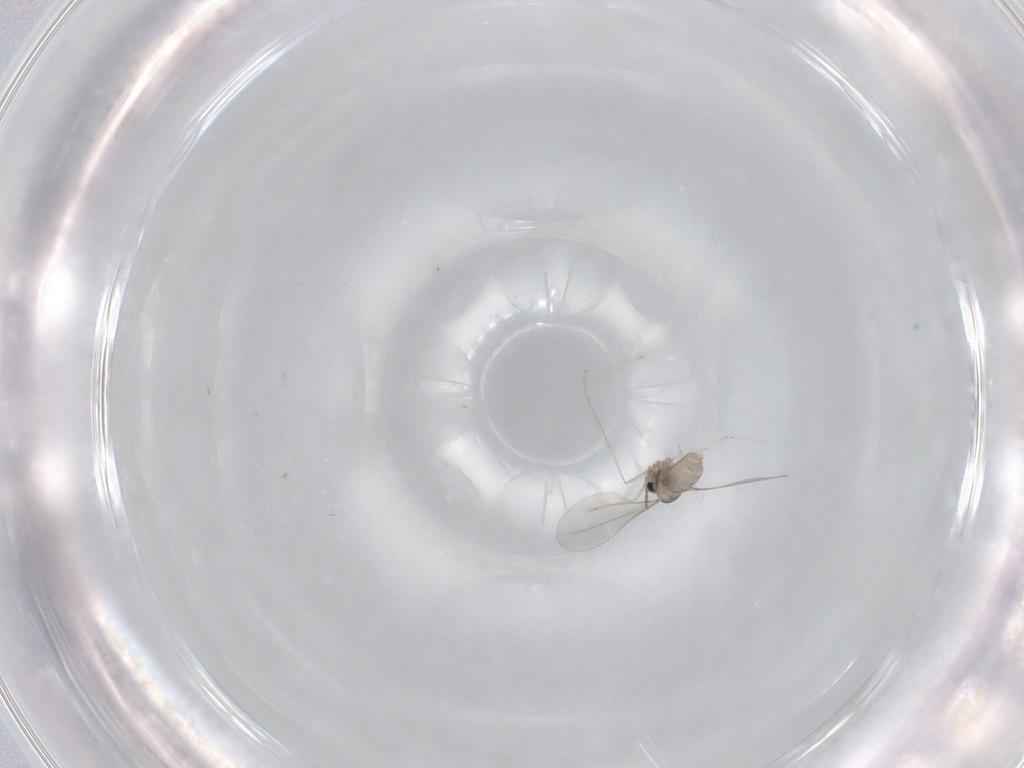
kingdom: Animalia
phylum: Arthropoda
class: Insecta
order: Diptera
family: Cecidomyiidae
